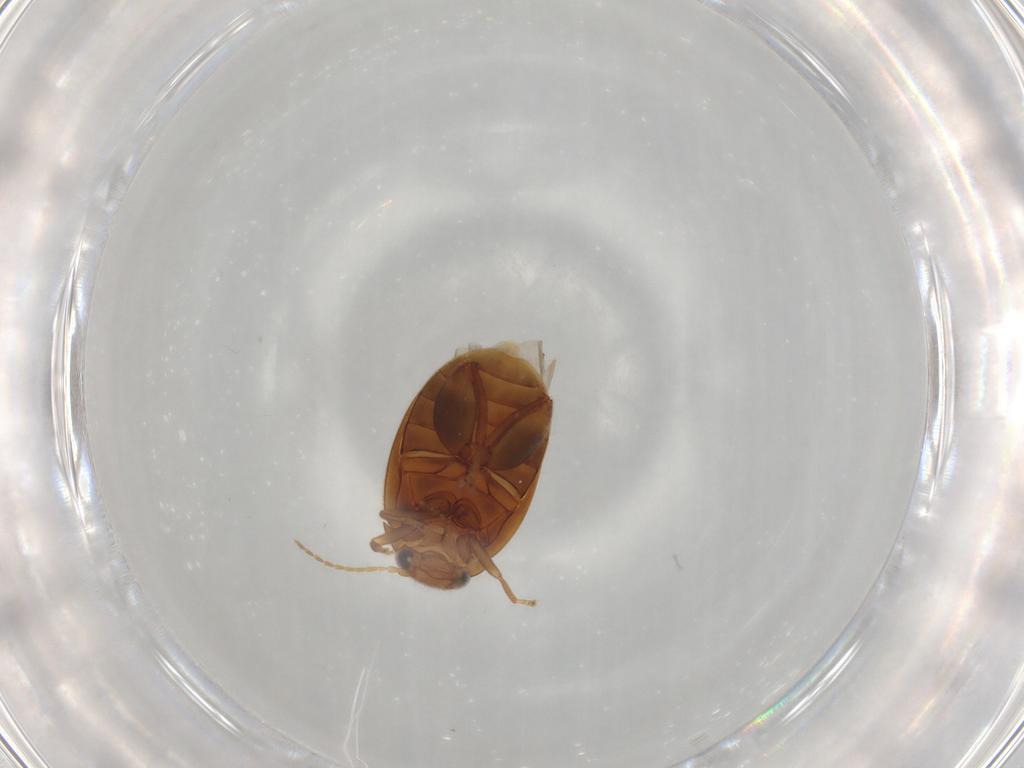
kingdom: Animalia
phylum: Arthropoda
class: Insecta
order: Coleoptera
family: Scirtidae
